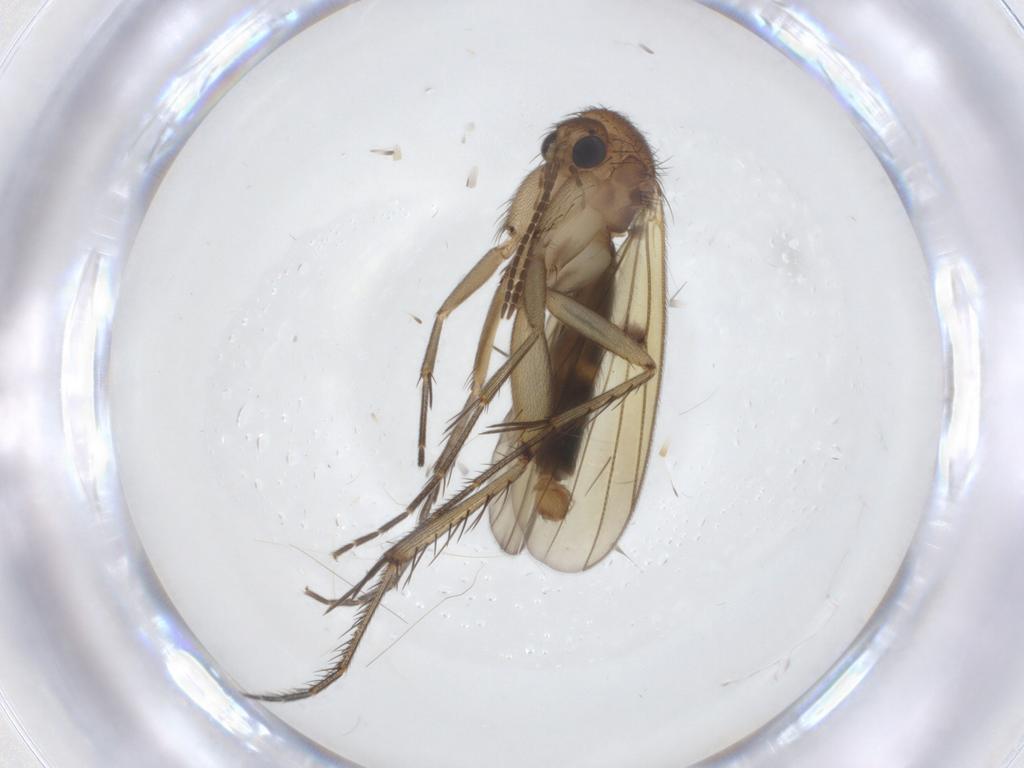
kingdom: Animalia
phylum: Arthropoda
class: Insecta
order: Diptera
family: Mycetophilidae
